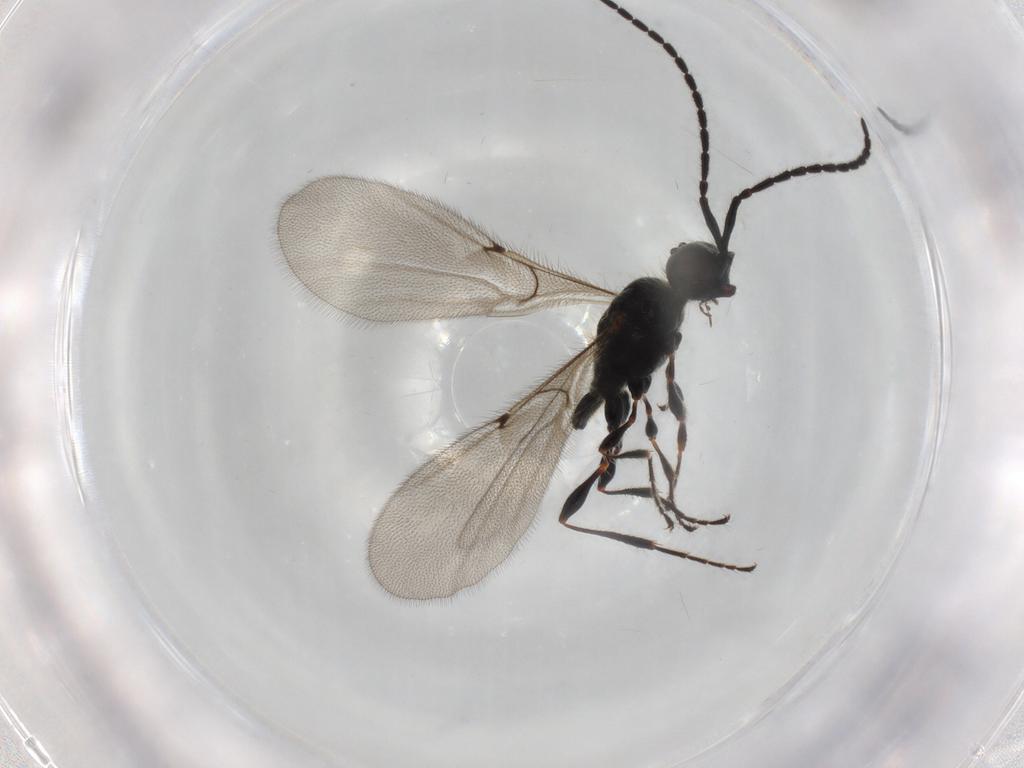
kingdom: Animalia
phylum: Arthropoda
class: Insecta
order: Hymenoptera
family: Diapriidae
